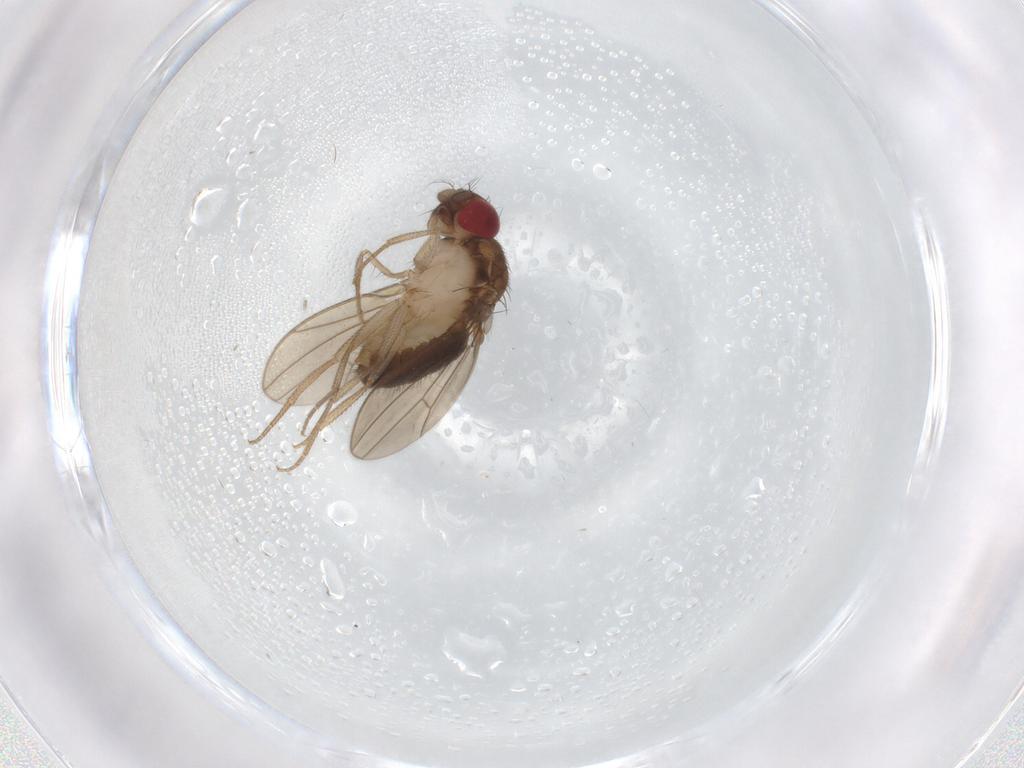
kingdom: Animalia
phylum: Arthropoda
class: Insecta
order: Diptera
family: Drosophilidae
